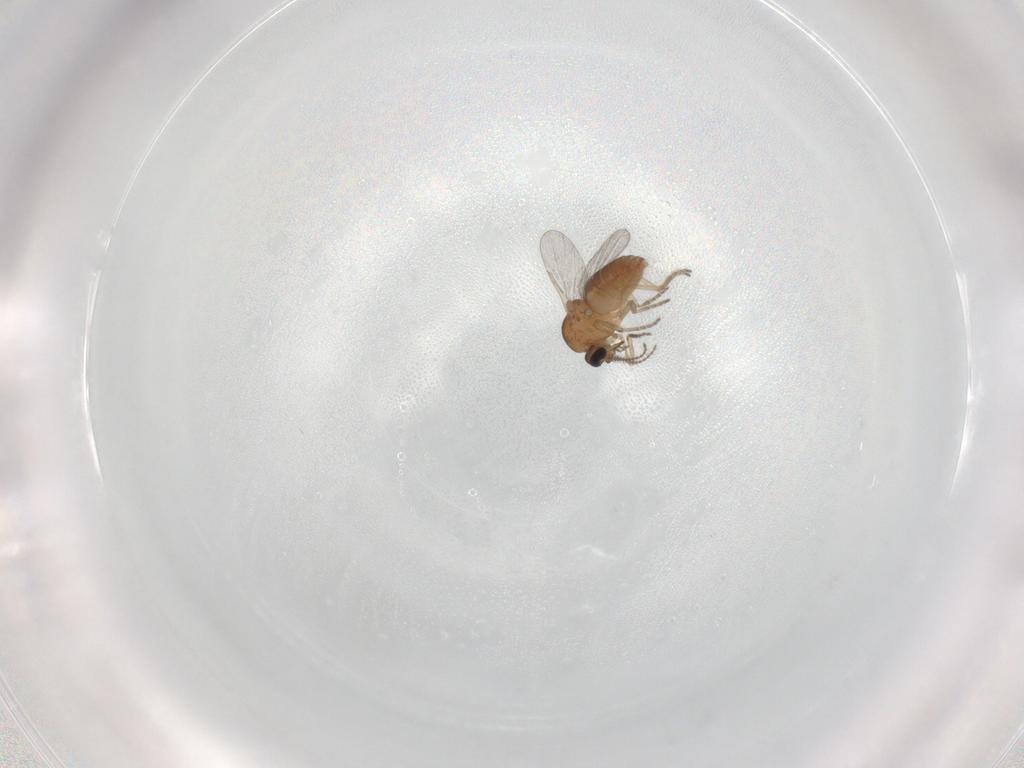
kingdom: Animalia
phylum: Arthropoda
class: Insecta
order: Diptera
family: Ceratopogonidae
